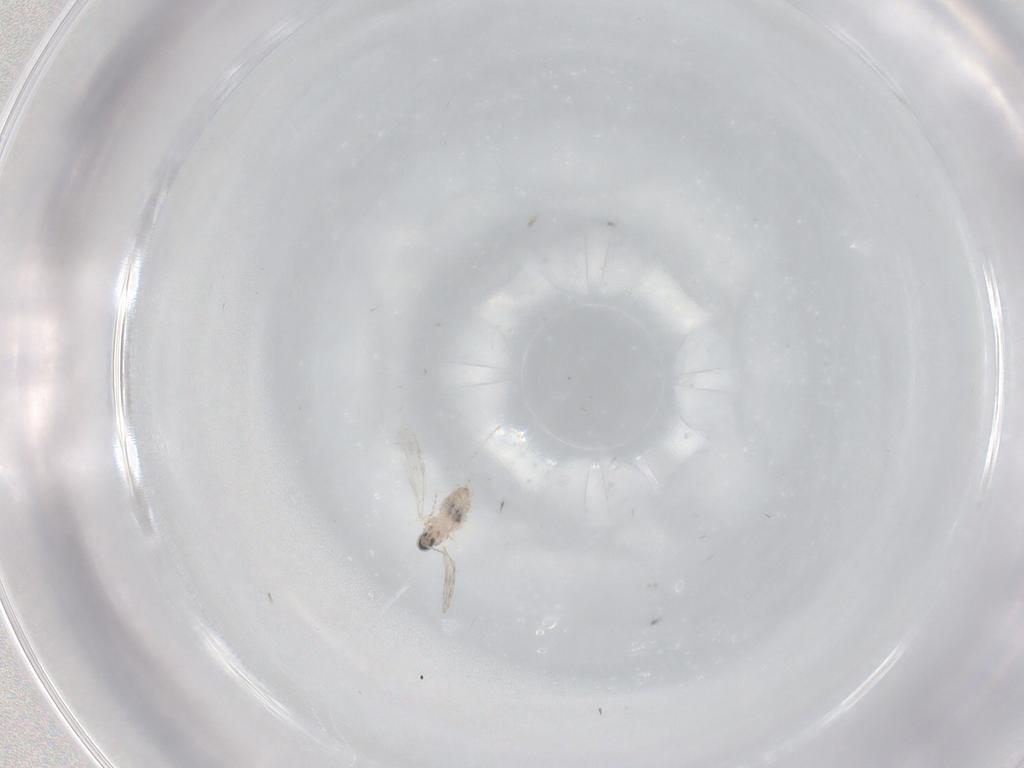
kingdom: Animalia
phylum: Arthropoda
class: Insecta
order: Diptera
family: Cecidomyiidae
